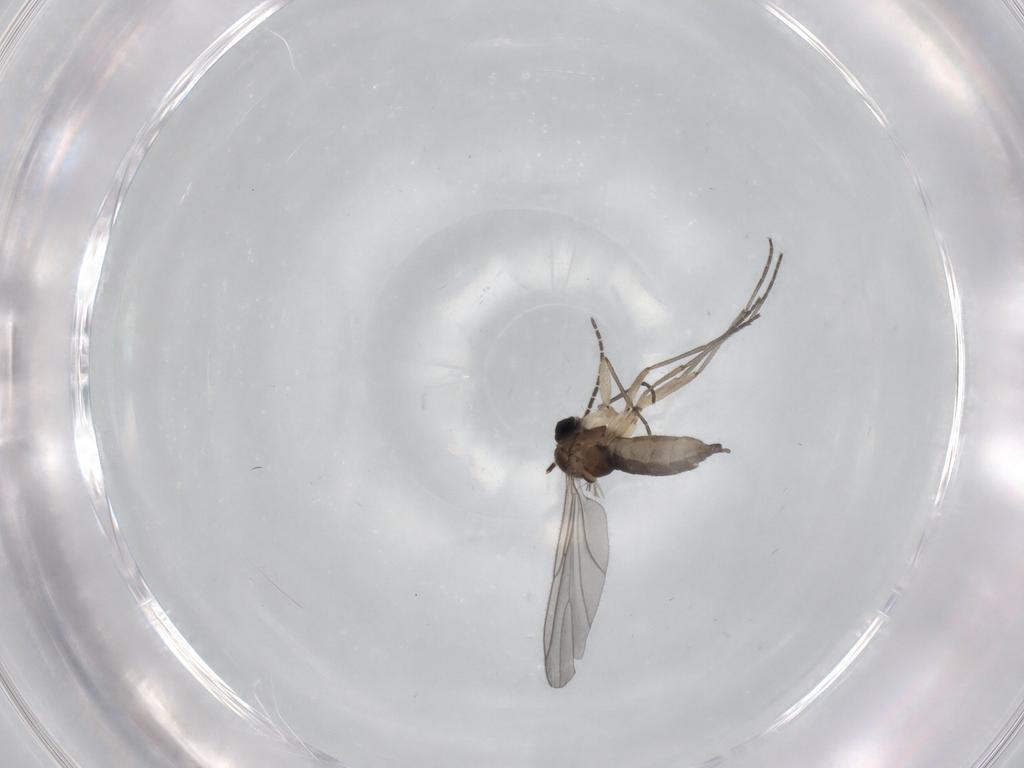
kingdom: Animalia
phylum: Arthropoda
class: Insecta
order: Diptera
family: Sciaridae
